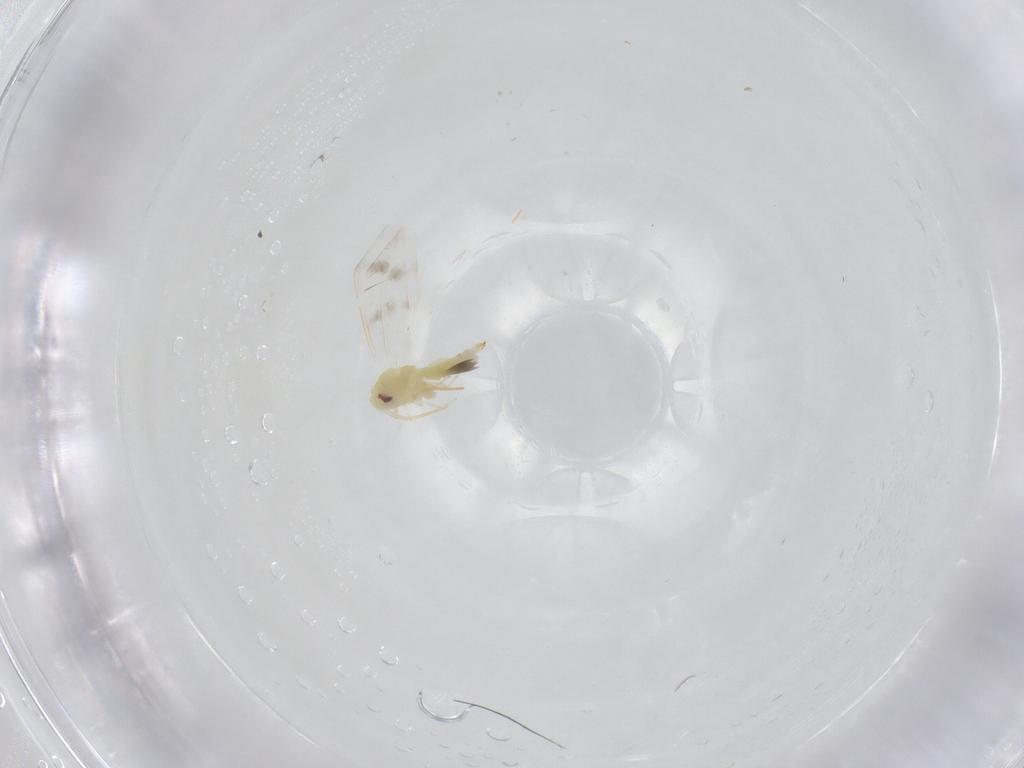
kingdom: Animalia
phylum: Arthropoda
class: Insecta
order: Hemiptera
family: Aleyrodidae
